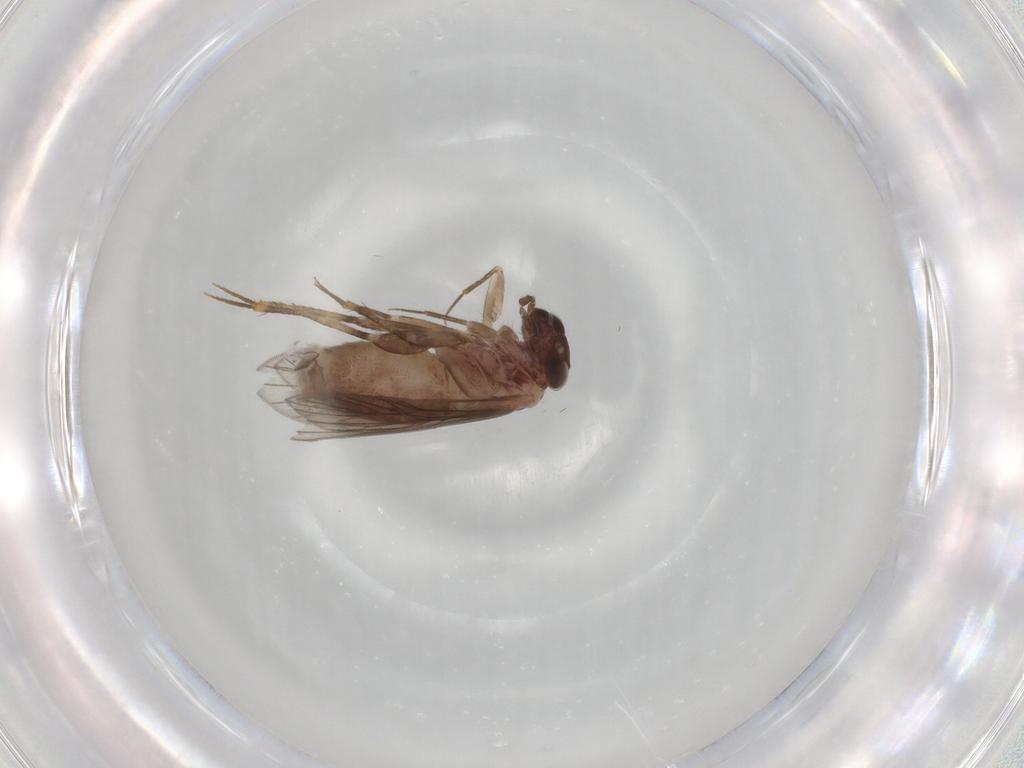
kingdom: Animalia
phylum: Arthropoda
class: Insecta
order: Psocodea
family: Lepidopsocidae
